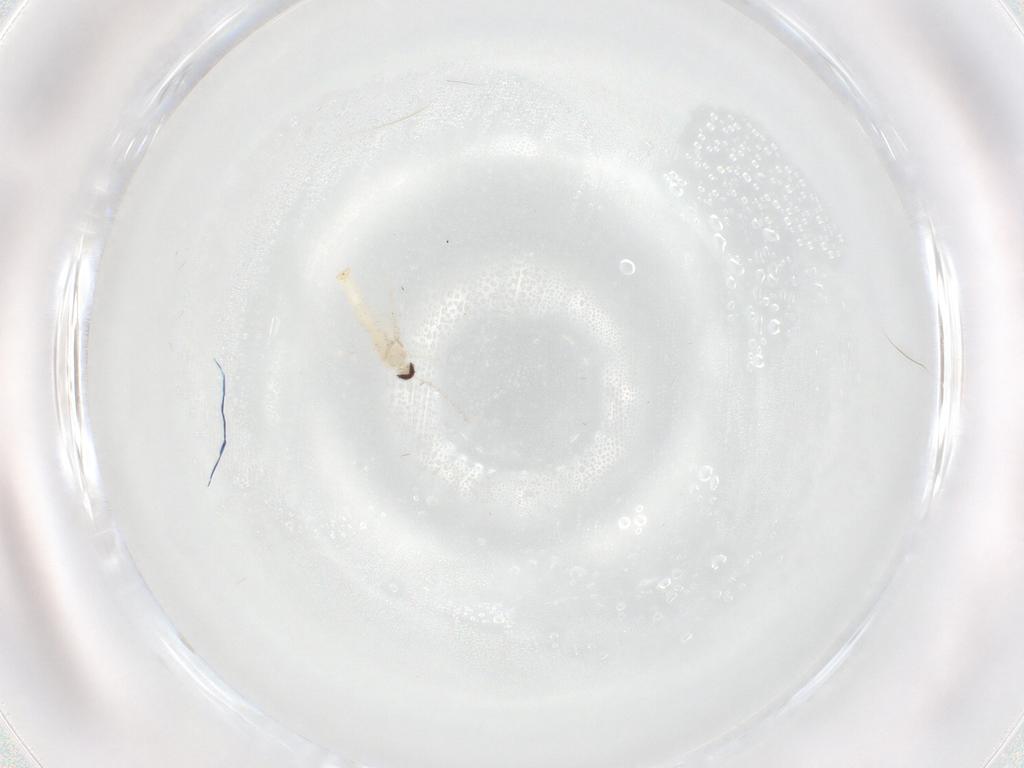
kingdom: Animalia
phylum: Arthropoda
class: Insecta
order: Diptera
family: Cecidomyiidae
